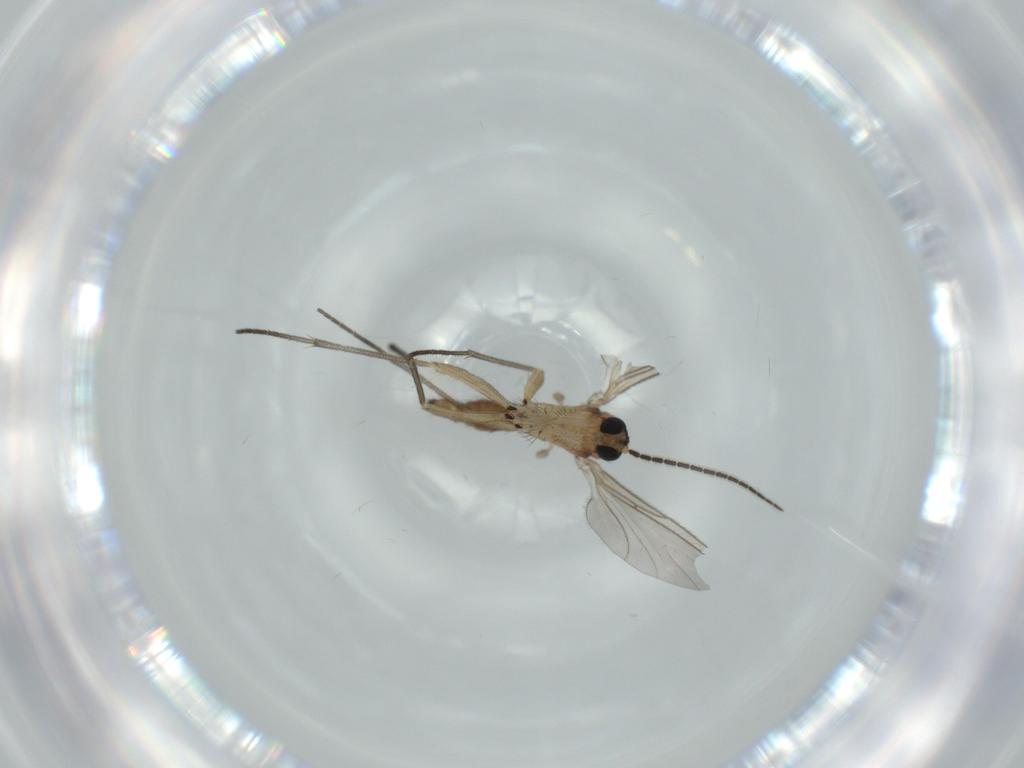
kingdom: Animalia
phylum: Arthropoda
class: Insecta
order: Diptera
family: Sciaridae
